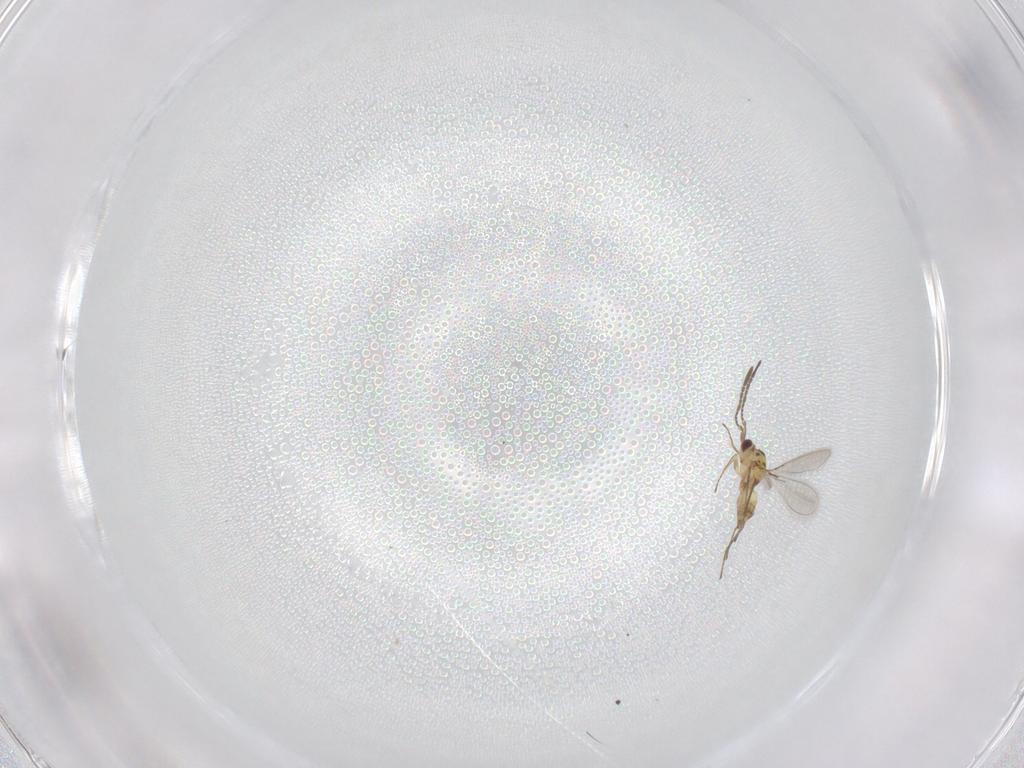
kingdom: Animalia
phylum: Arthropoda
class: Insecta
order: Hymenoptera
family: Mymaridae
